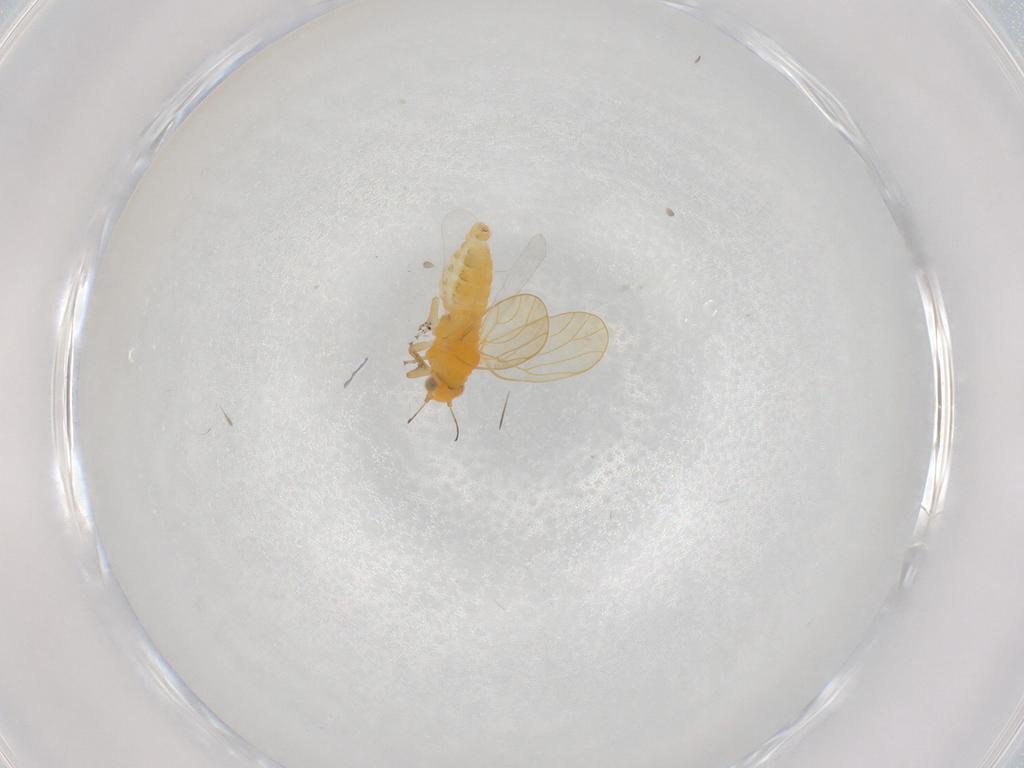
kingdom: Animalia
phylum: Arthropoda
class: Insecta
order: Hemiptera
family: Cicadellidae
